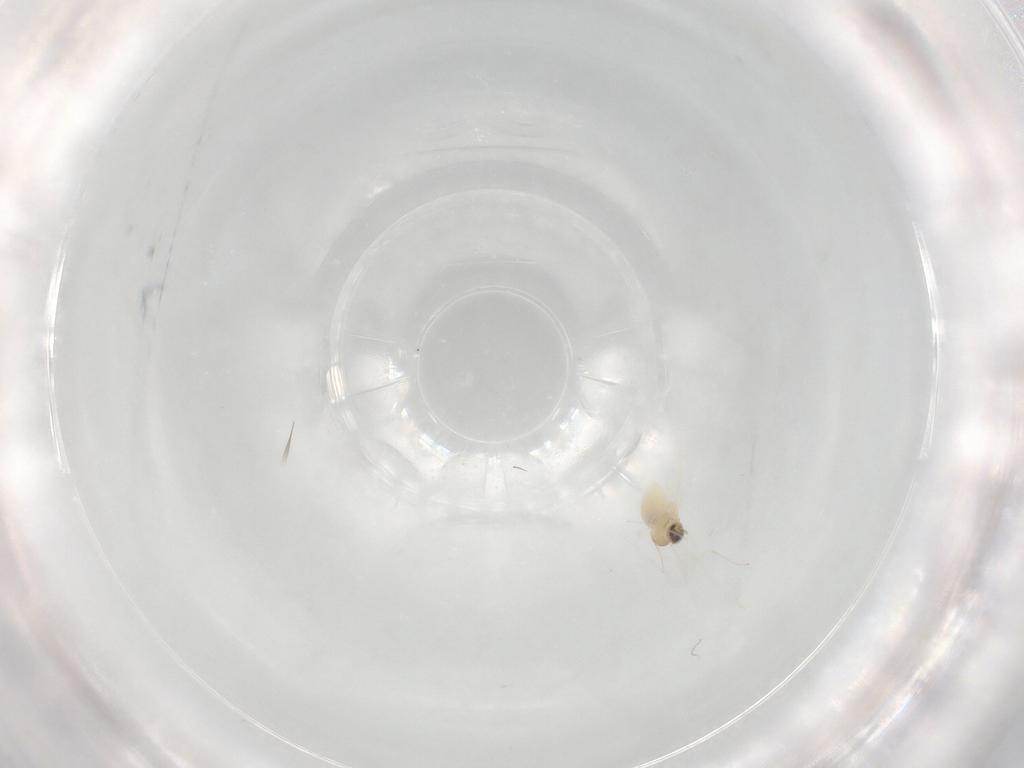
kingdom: Animalia
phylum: Arthropoda
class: Insecta
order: Diptera
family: Cecidomyiidae
